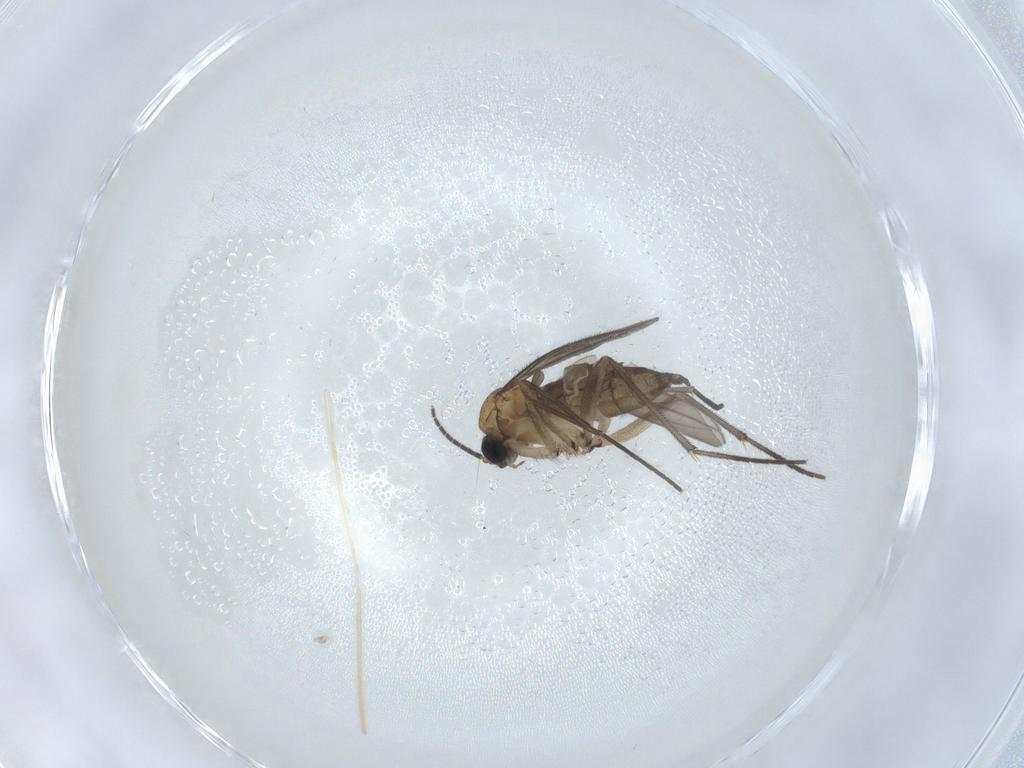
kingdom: Animalia
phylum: Arthropoda
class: Insecta
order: Diptera
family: Sciaridae
